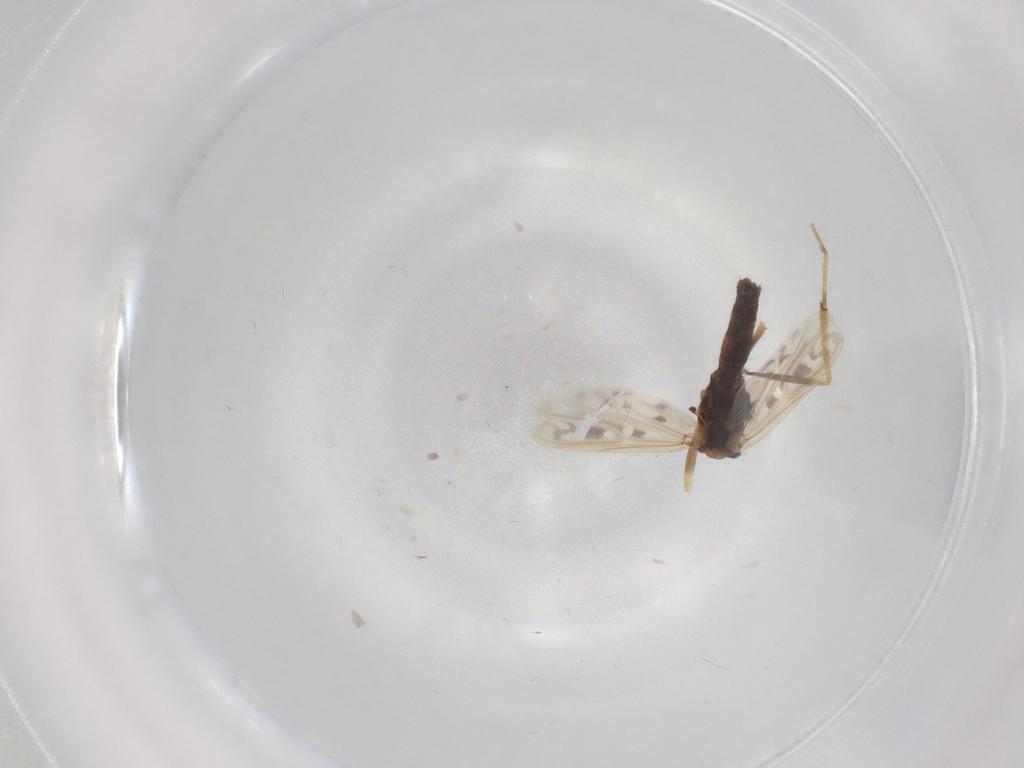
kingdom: Animalia
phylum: Arthropoda
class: Insecta
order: Diptera
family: Chironomidae
